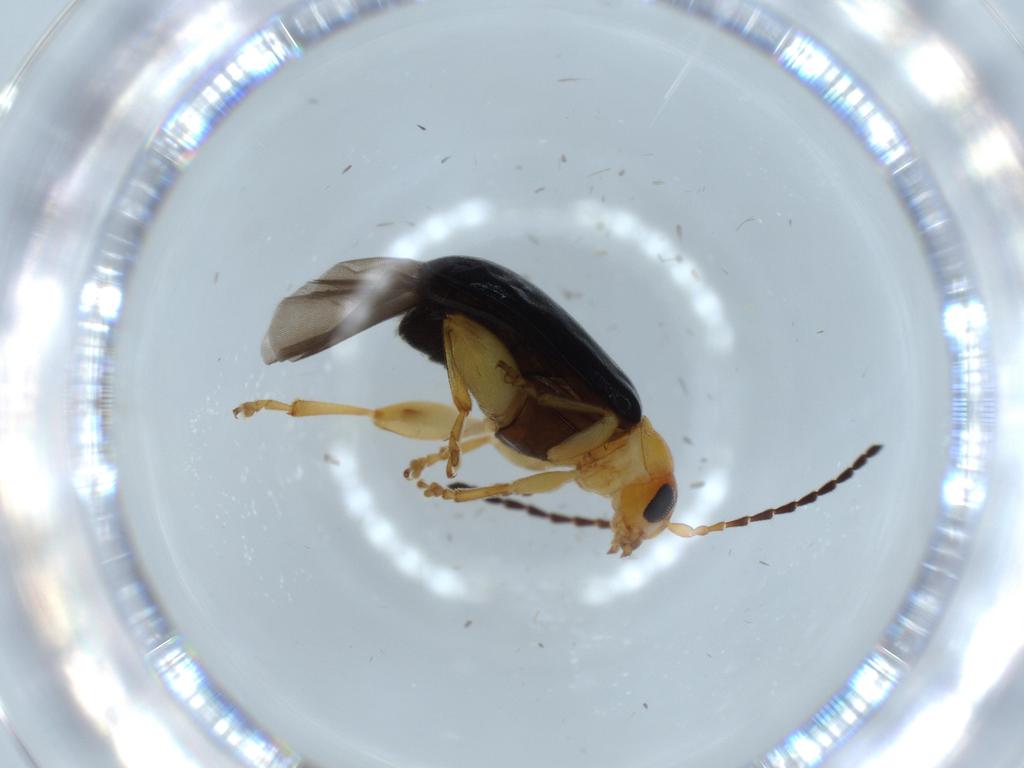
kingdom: Animalia
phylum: Arthropoda
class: Insecta
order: Coleoptera
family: Chrysomelidae
